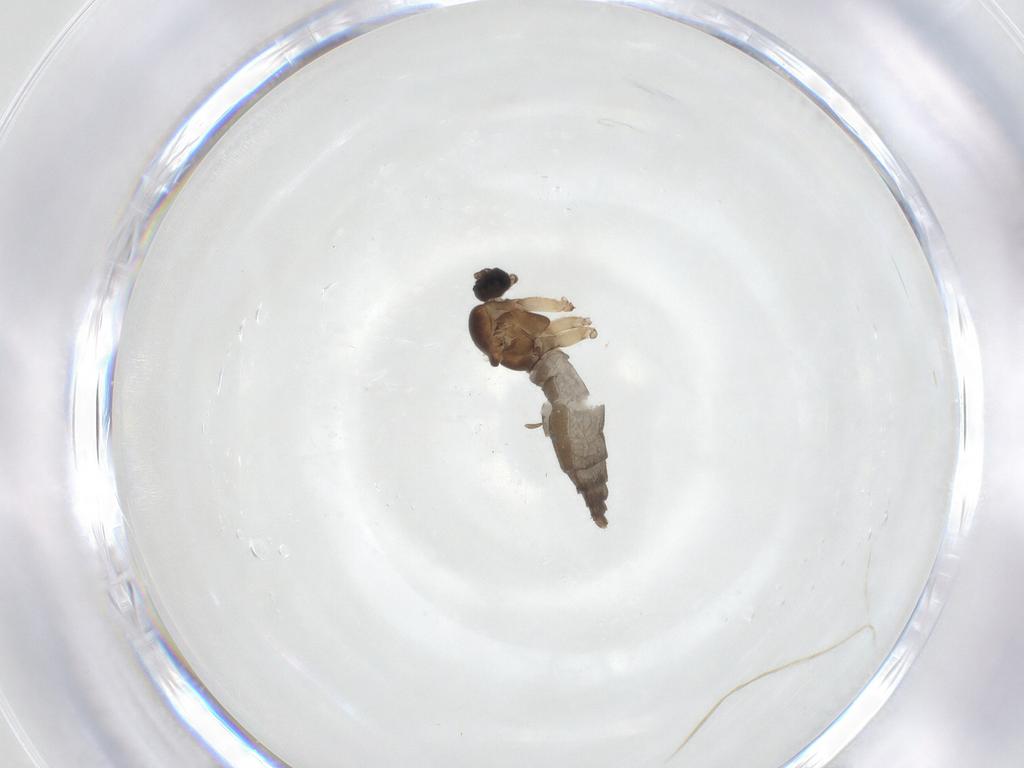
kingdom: Animalia
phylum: Arthropoda
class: Insecta
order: Diptera
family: Sciaridae
